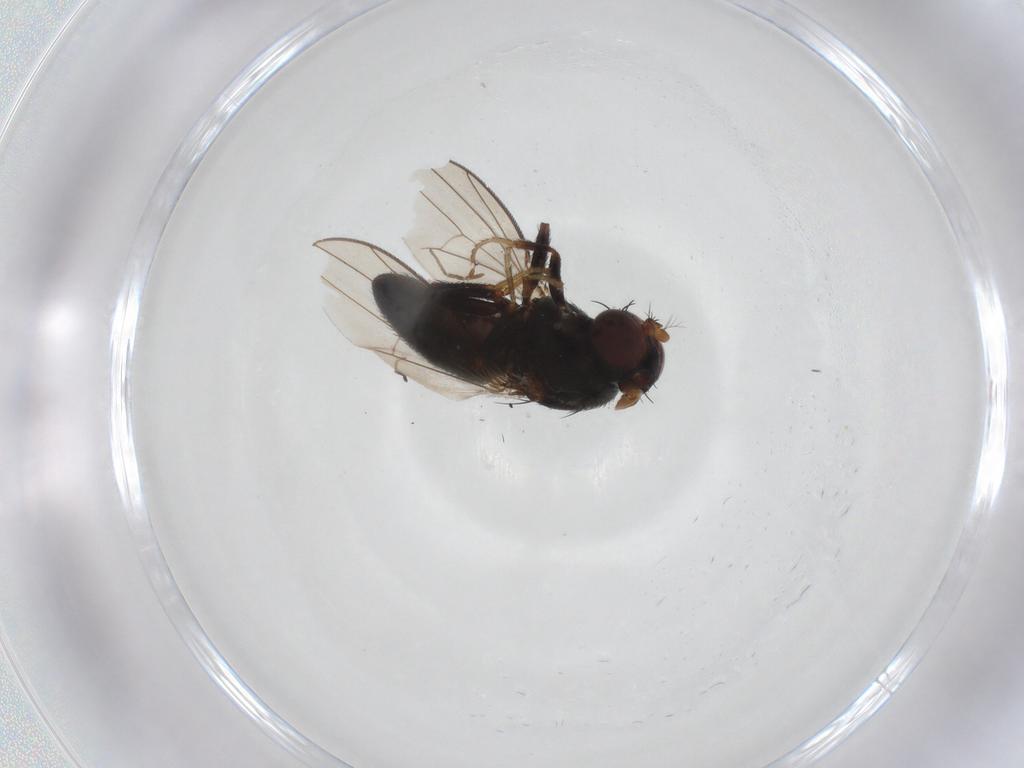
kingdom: Animalia
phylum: Arthropoda
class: Insecta
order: Diptera
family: Ephydridae
